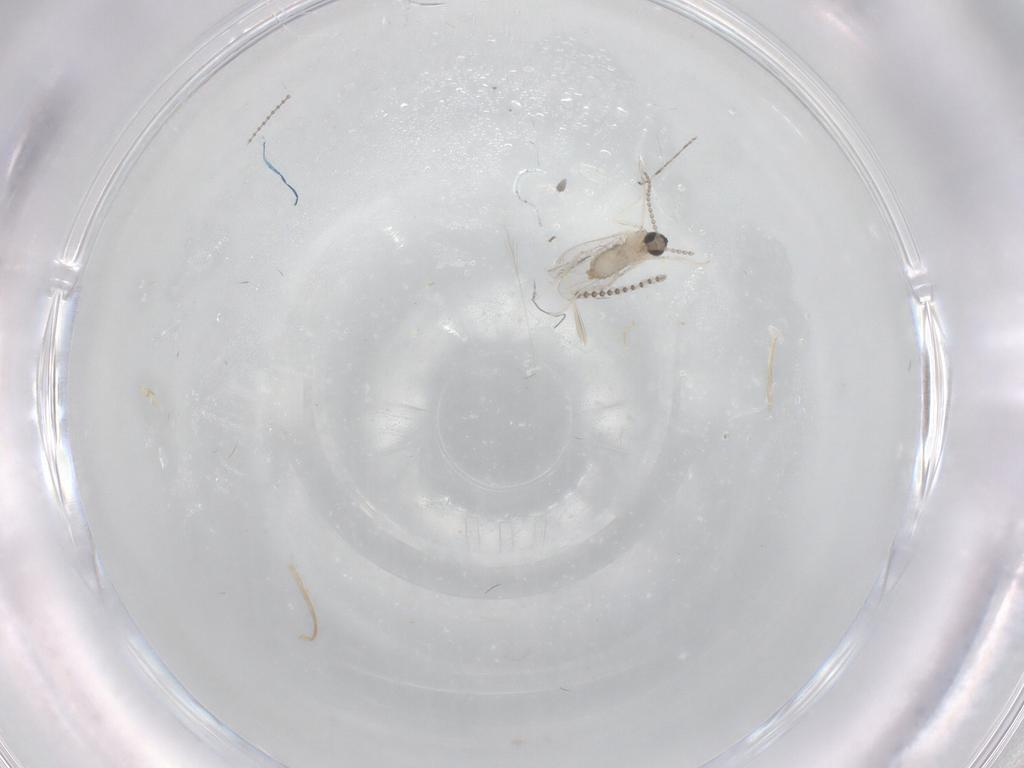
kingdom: Animalia
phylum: Arthropoda
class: Insecta
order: Diptera
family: Cecidomyiidae
